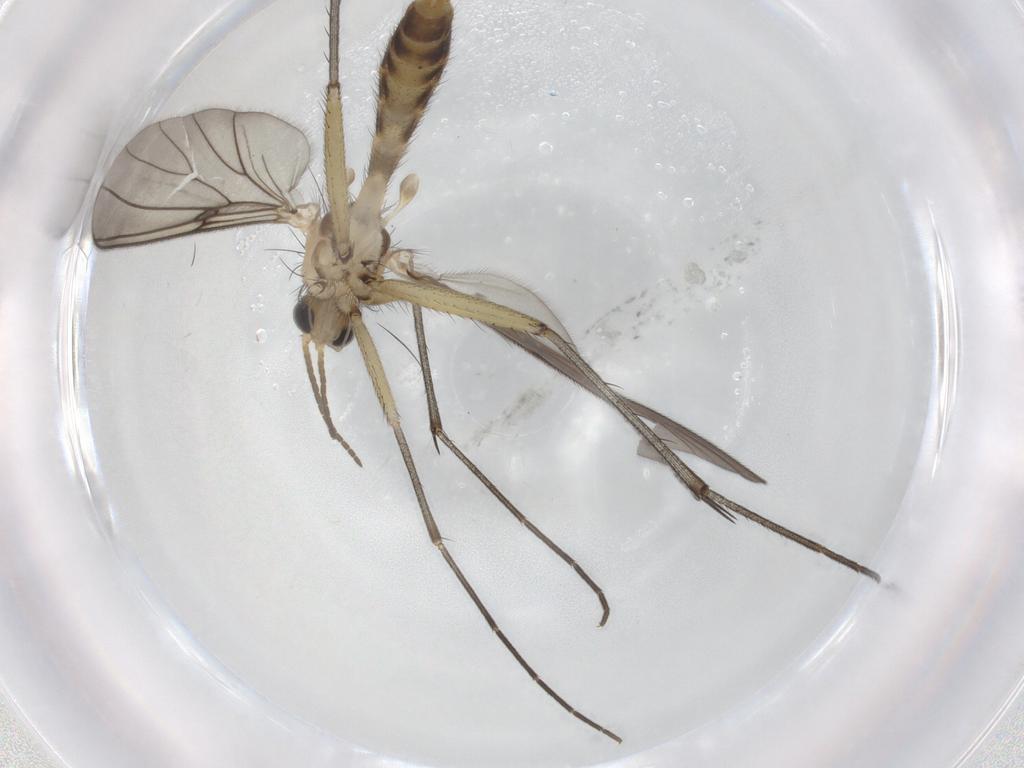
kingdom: Animalia
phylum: Arthropoda
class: Insecta
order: Diptera
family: Mycetophilidae
